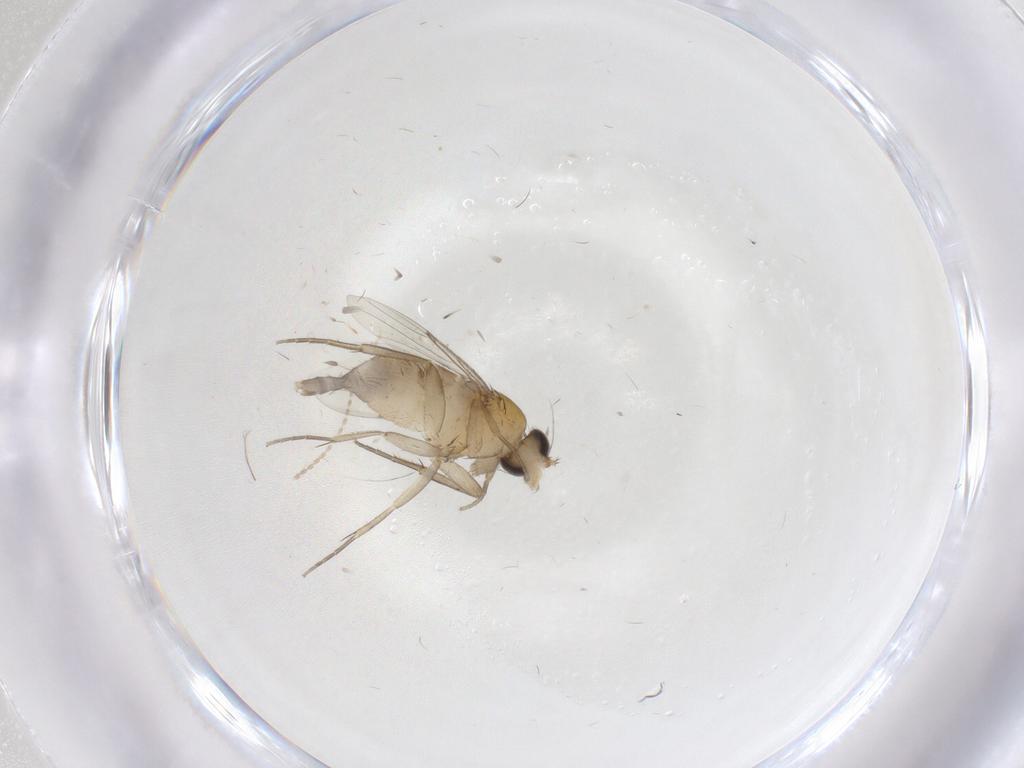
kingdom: Animalia
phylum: Arthropoda
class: Insecta
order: Diptera
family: Phoridae
